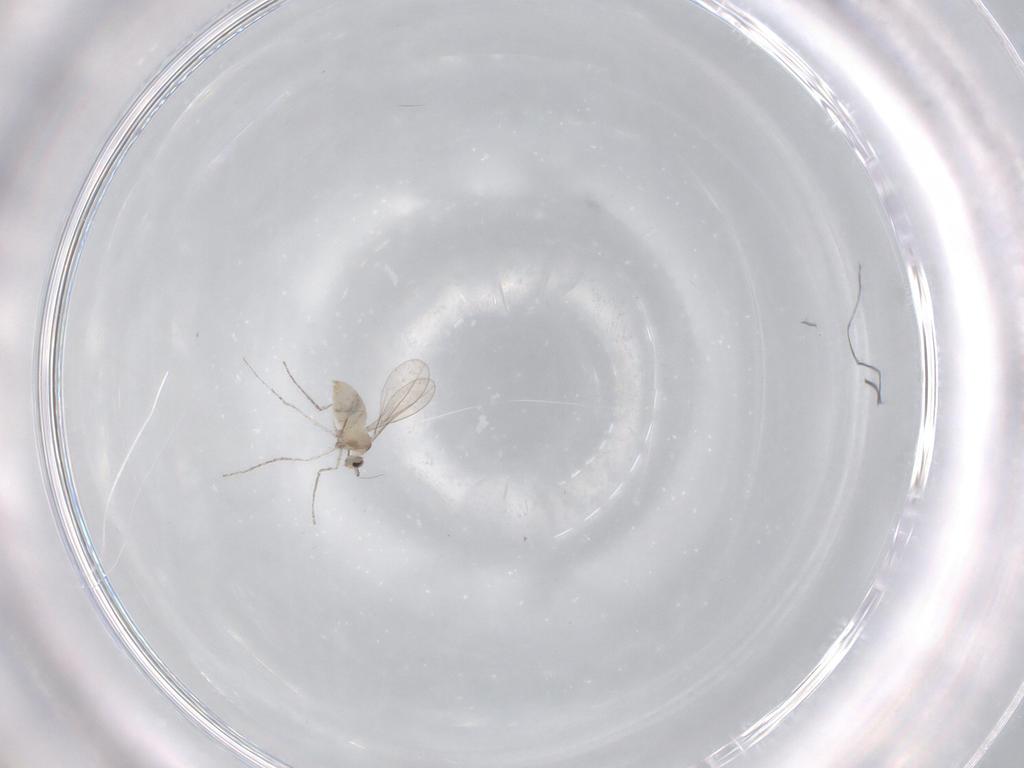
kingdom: Animalia
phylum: Arthropoda
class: Insecta
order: Diptera
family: Cecidomyiidae
